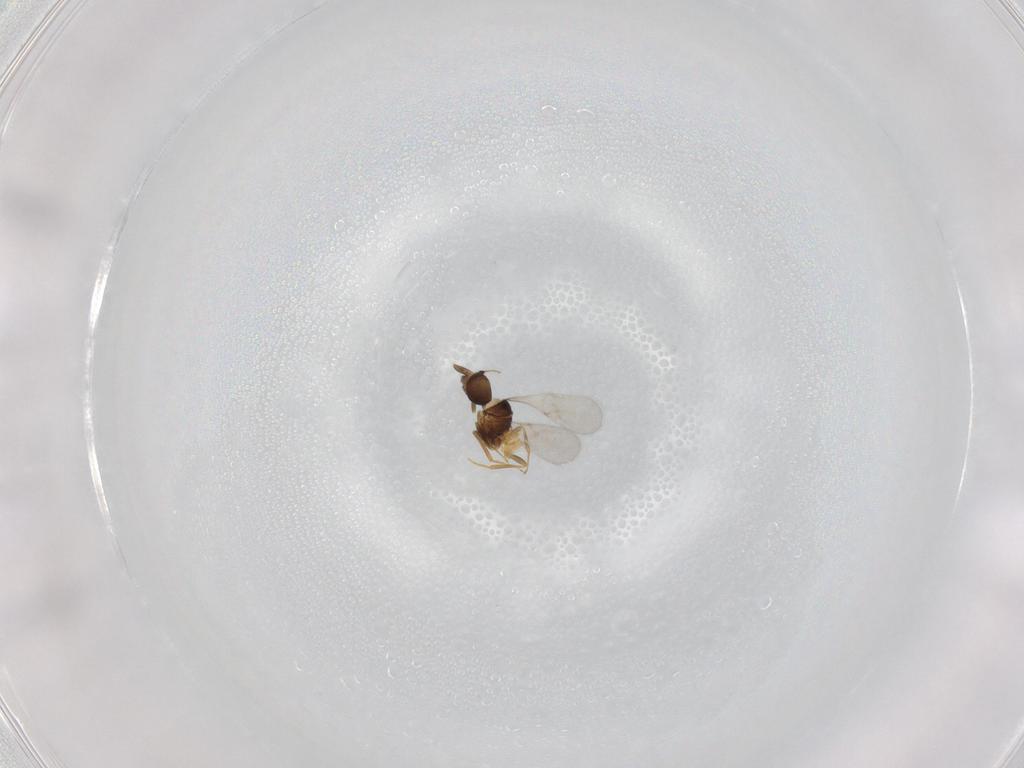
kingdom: Animalia
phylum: Arthropoda
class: Insecta
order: Hymenoptera
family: Scelionidae
